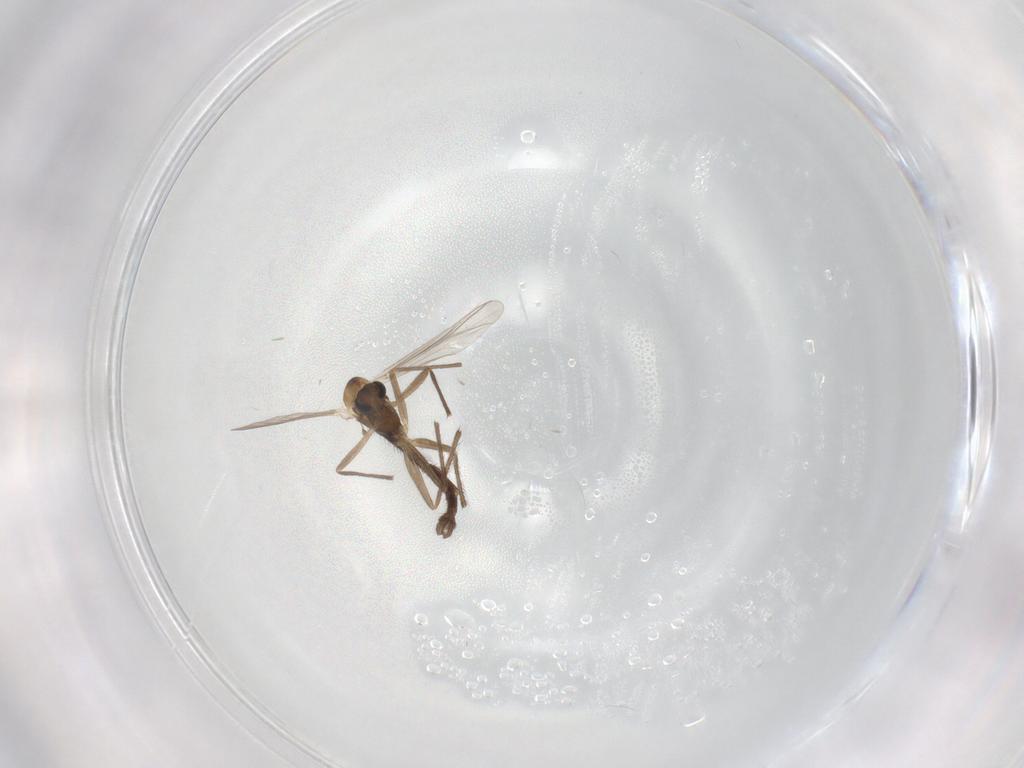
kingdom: Animalia
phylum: Arthropoda
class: Insecta
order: Diptera
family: Chironomidae
